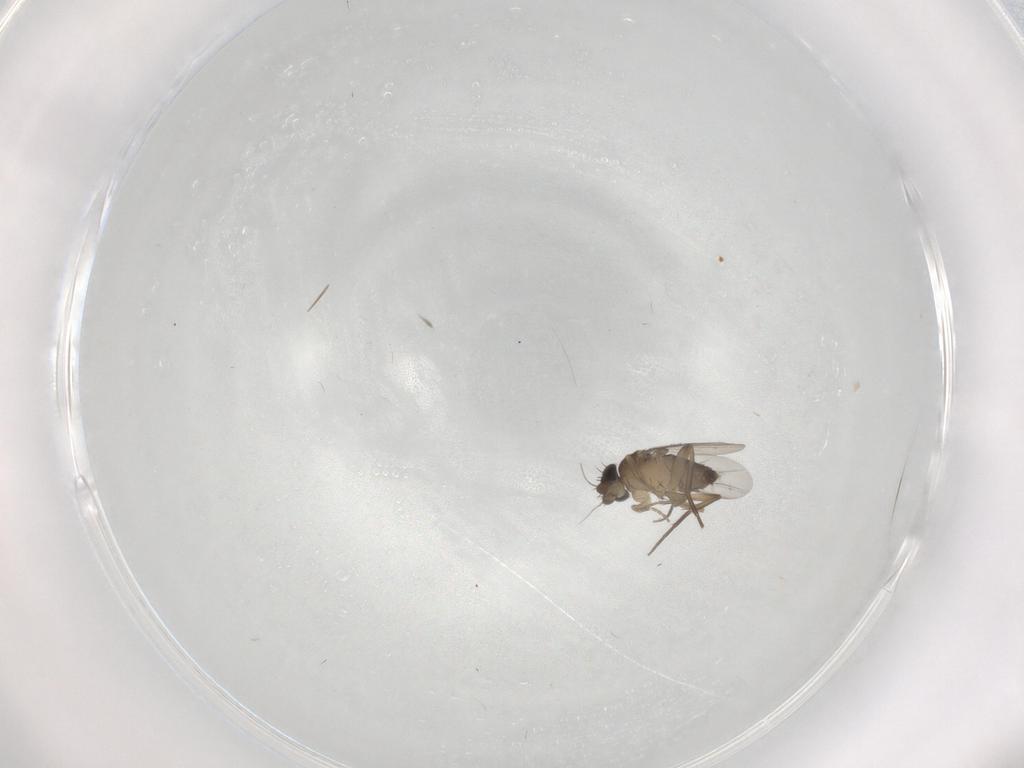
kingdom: Animalia
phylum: Arthropoda
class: Insecta
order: Diptera
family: Phoridae
